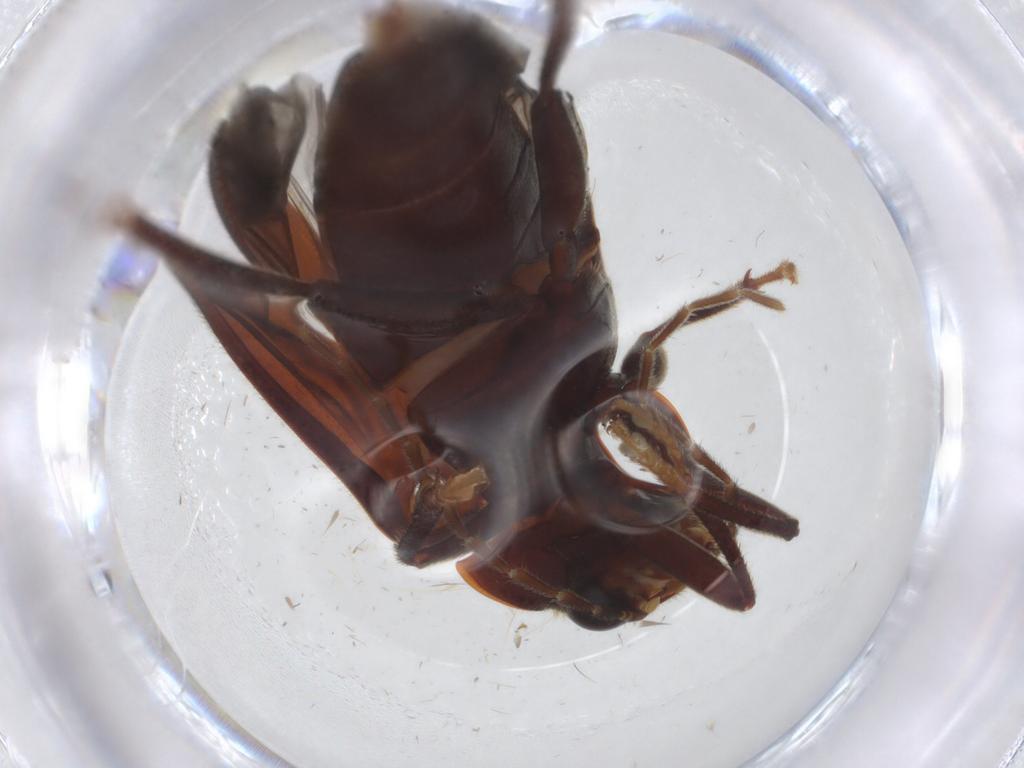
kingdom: Animalia
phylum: Arthropoda
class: Insecta
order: Coleoptera
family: Ptilodactylidae
